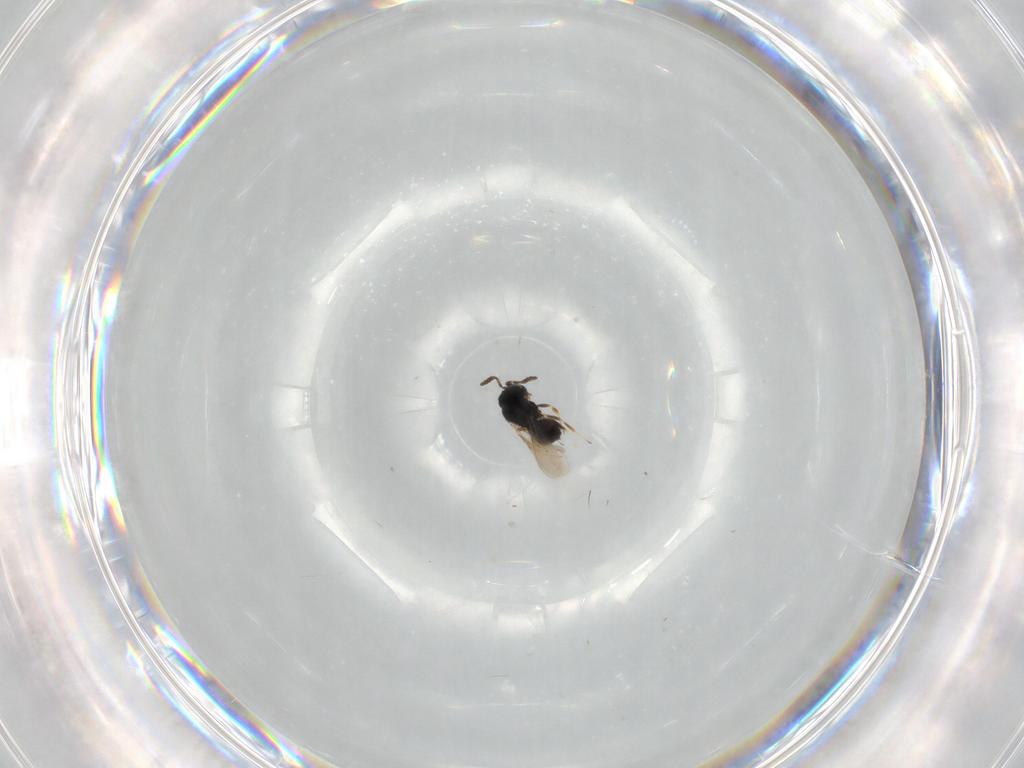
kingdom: Animalia
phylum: Arthropoda
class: Insecta
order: Hymenoptera
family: Scelionidae
